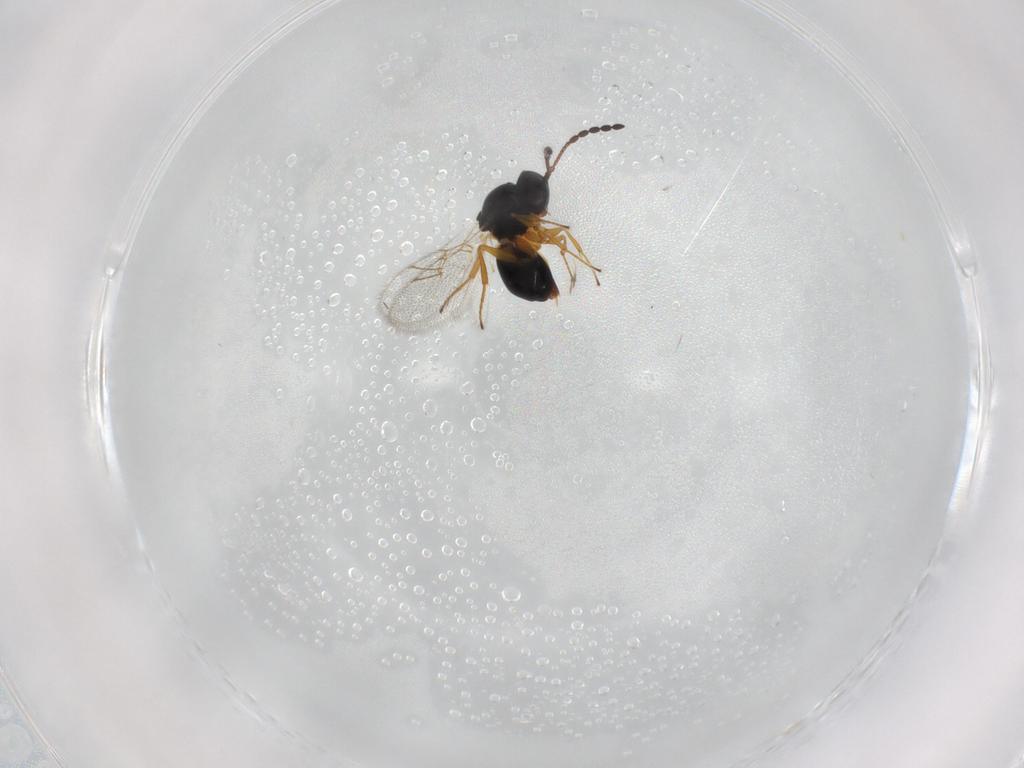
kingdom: Animalia
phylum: Arthropoda
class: Insecta
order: Hymenoptera
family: Figitidae
